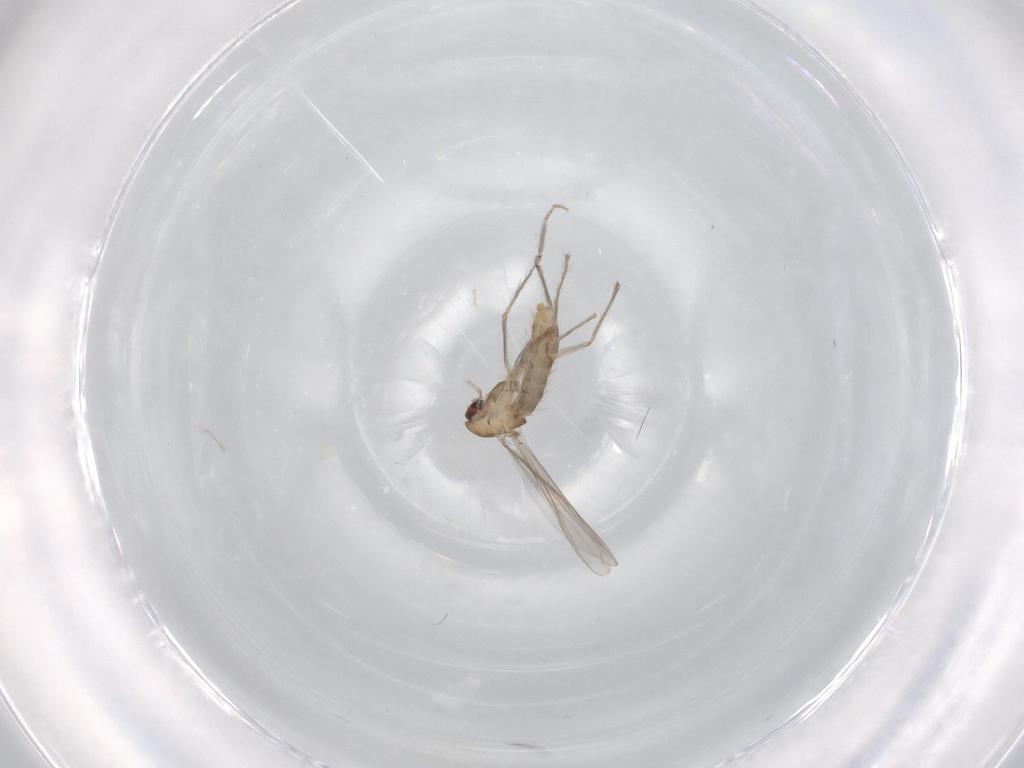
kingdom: Animalia
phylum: Arthropoda
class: Insecta
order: Diptera
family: Chironomidae
